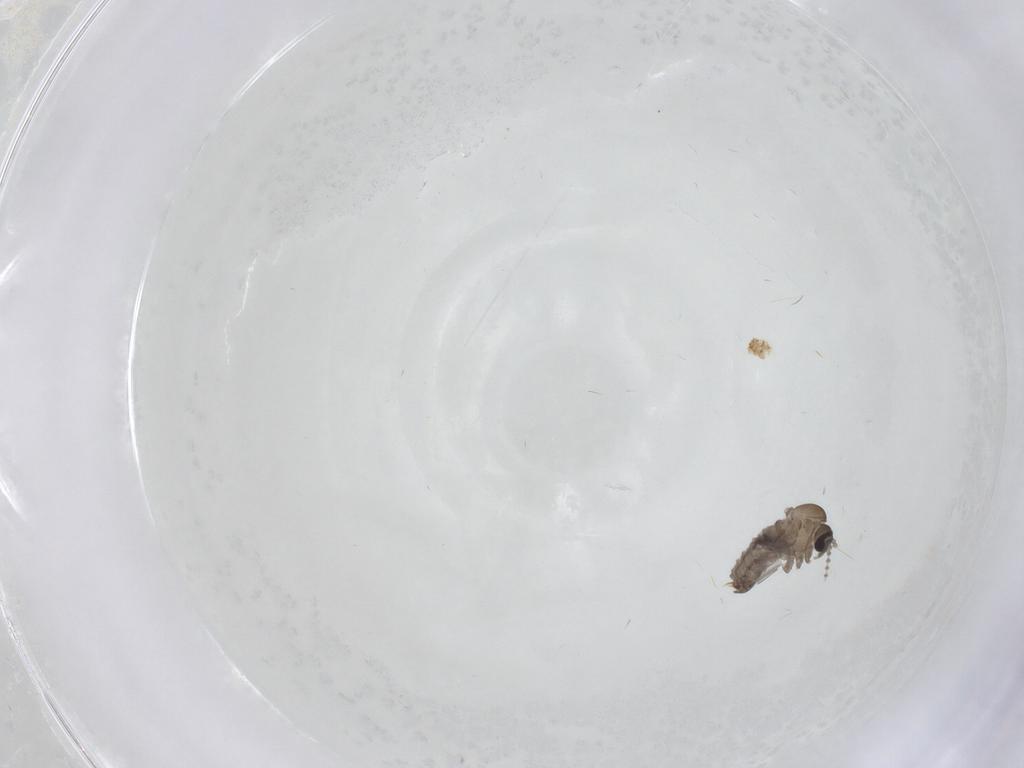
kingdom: Animalia
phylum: Arthropoda
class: Insecta
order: Diptera
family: Psychodidae
